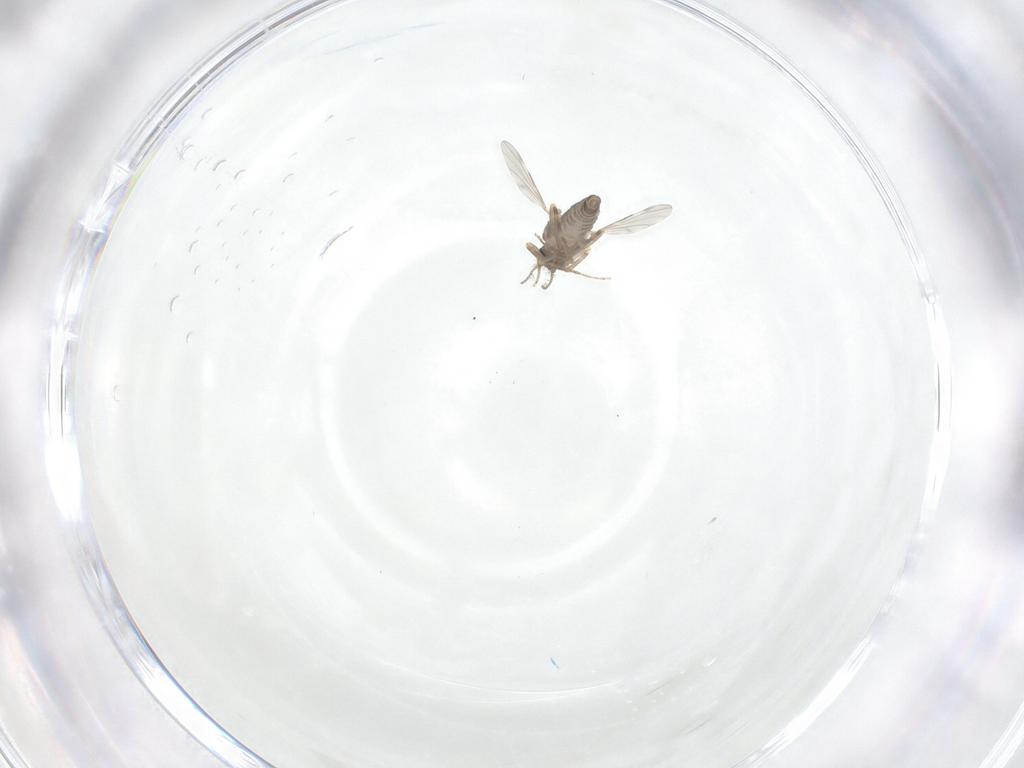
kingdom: Animalia
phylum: Arthropoda
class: Insecta
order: Diptera
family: Ceratopogonidae
